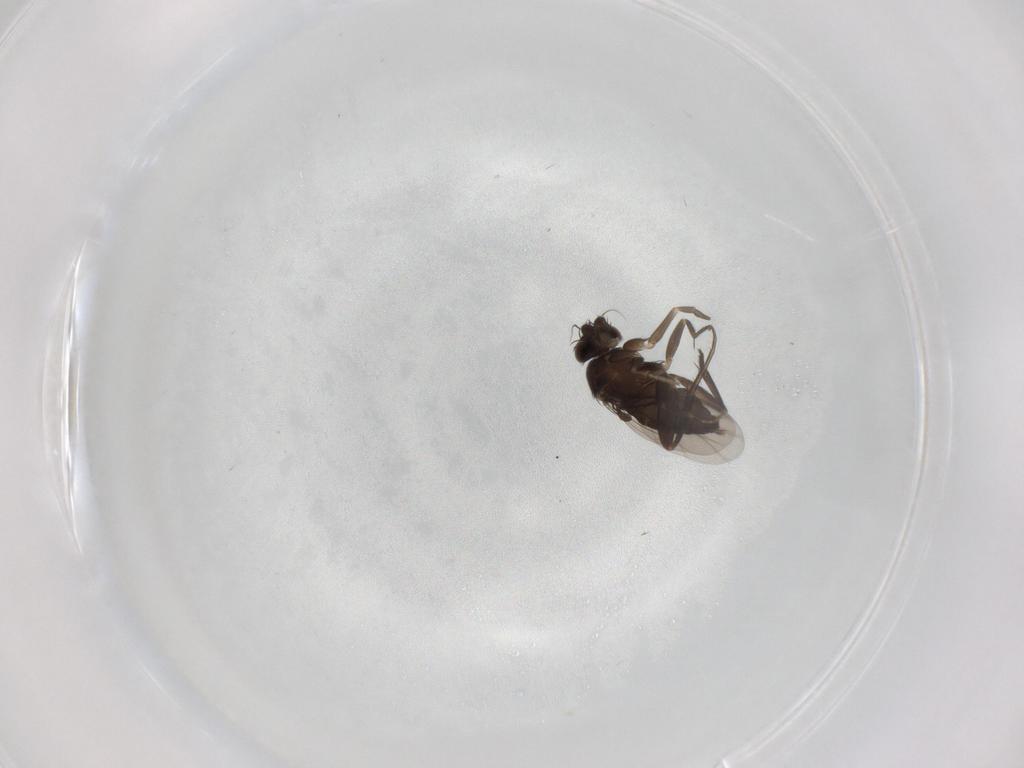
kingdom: Animalia
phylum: Arthropoda
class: Insecta
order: Diptera
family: Phoridae
